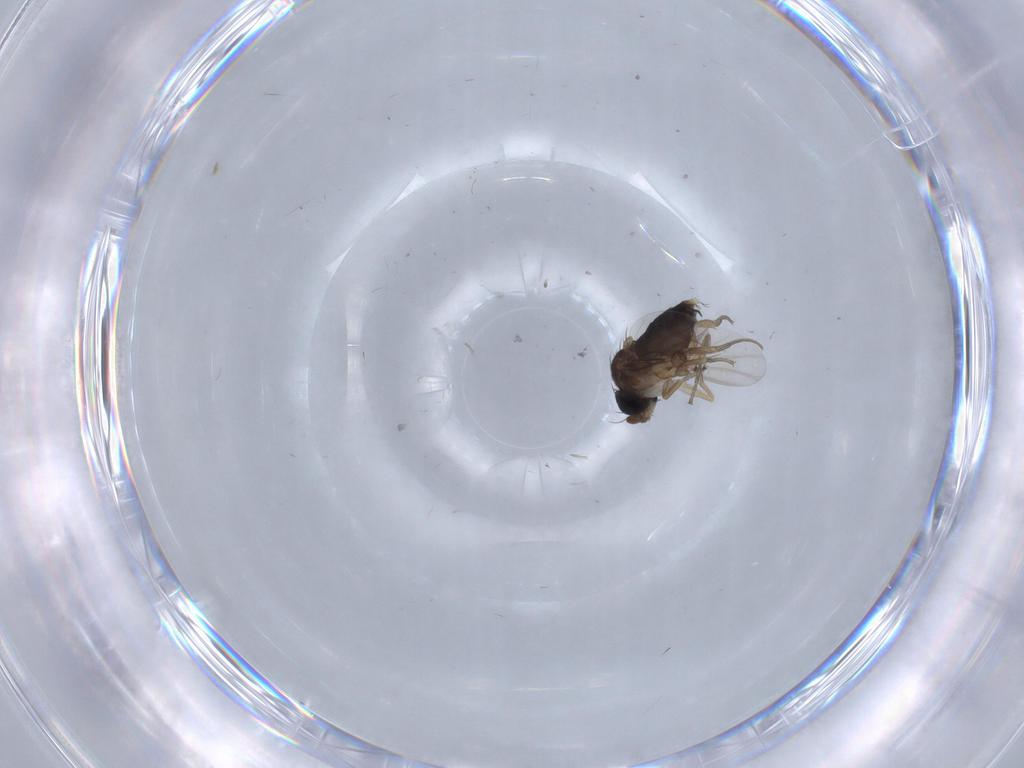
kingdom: Animalia
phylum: Arthropoda
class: Insecta
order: Diptera
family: Phoridae
